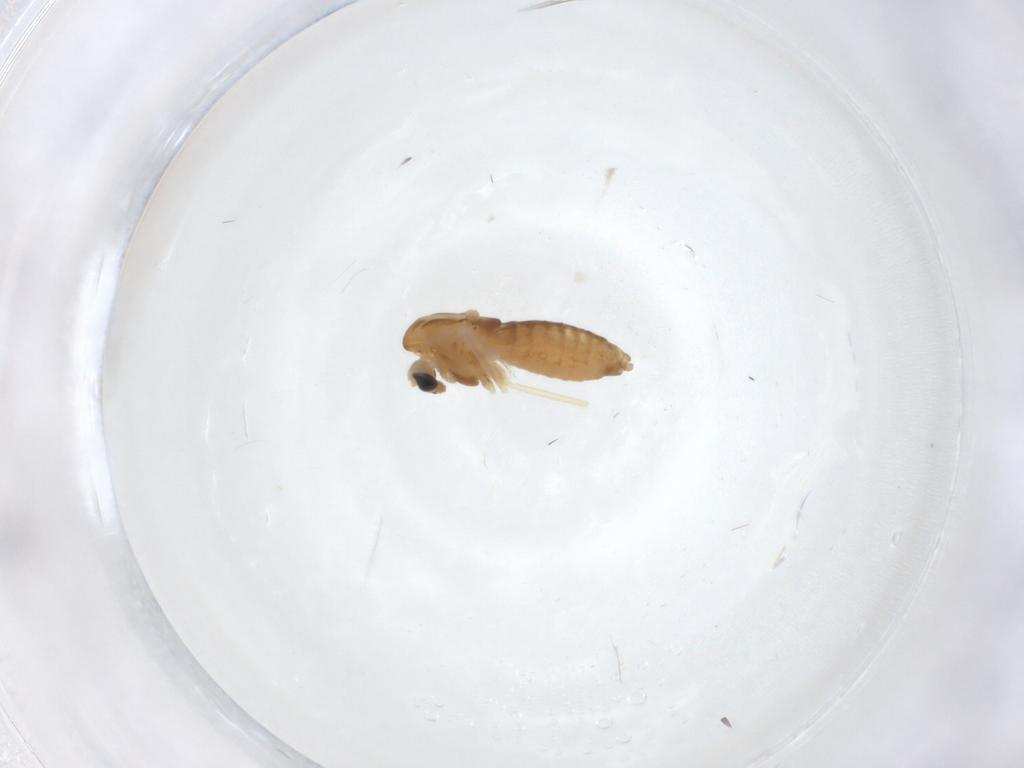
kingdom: Animalia
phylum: Arthropoda
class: Insecta
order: Diptera
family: Chironomidae
